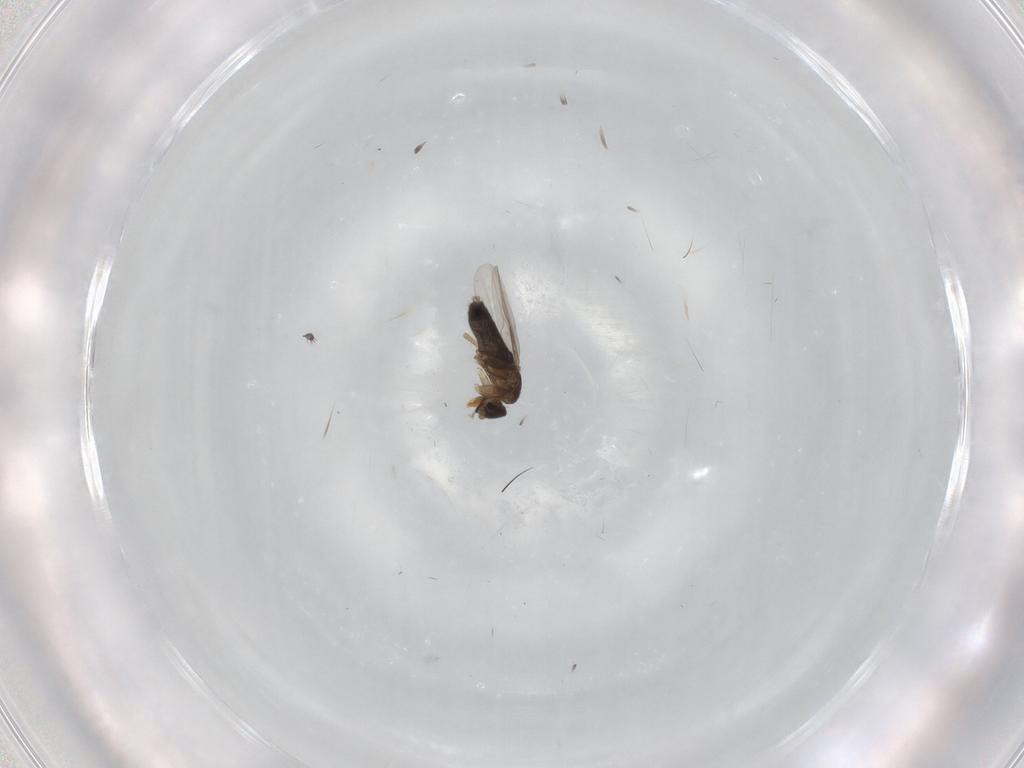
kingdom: Animalia
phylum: Arthropoda
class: Insecta
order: Diptera
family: Phoridae
